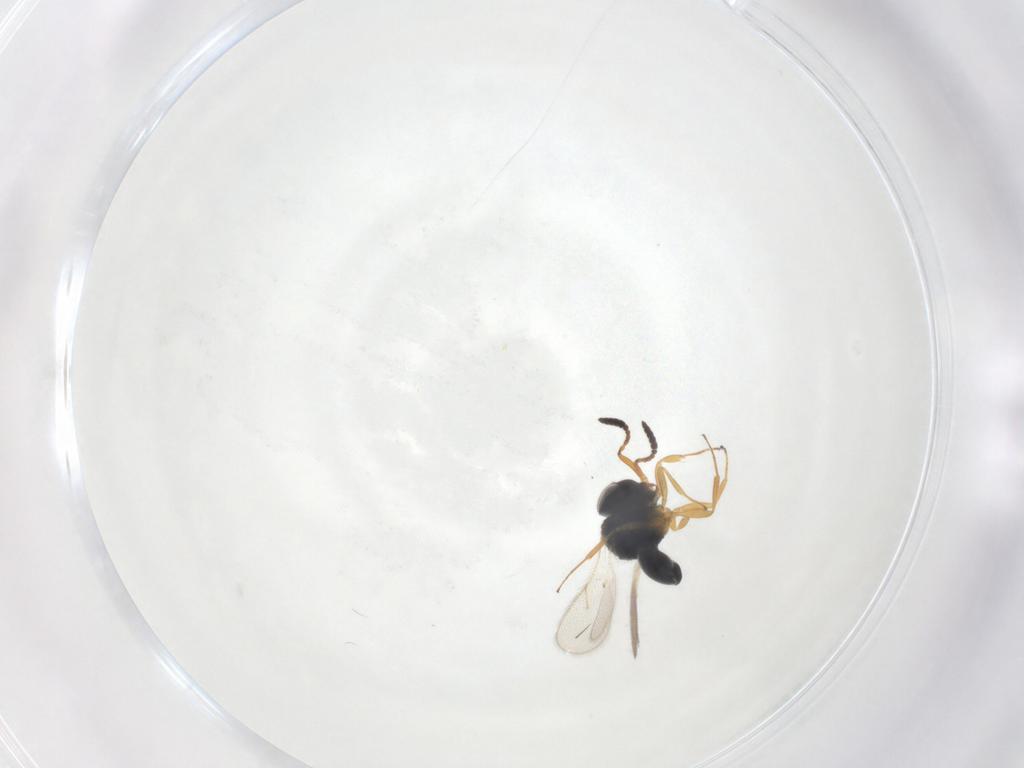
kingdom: Animalia
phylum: Arthropoda
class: Insecta
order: Hymenoptera
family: Scelionidae
